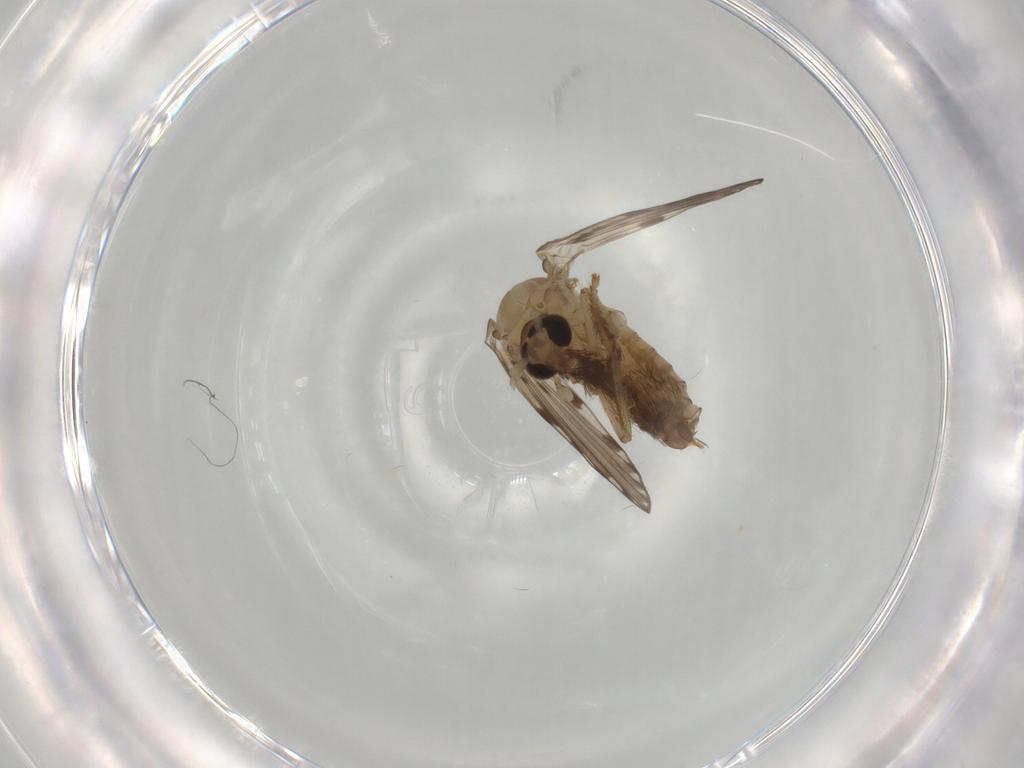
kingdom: Animalia
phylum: Arthropoda
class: Insecta
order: Diptera
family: Psychodidae
